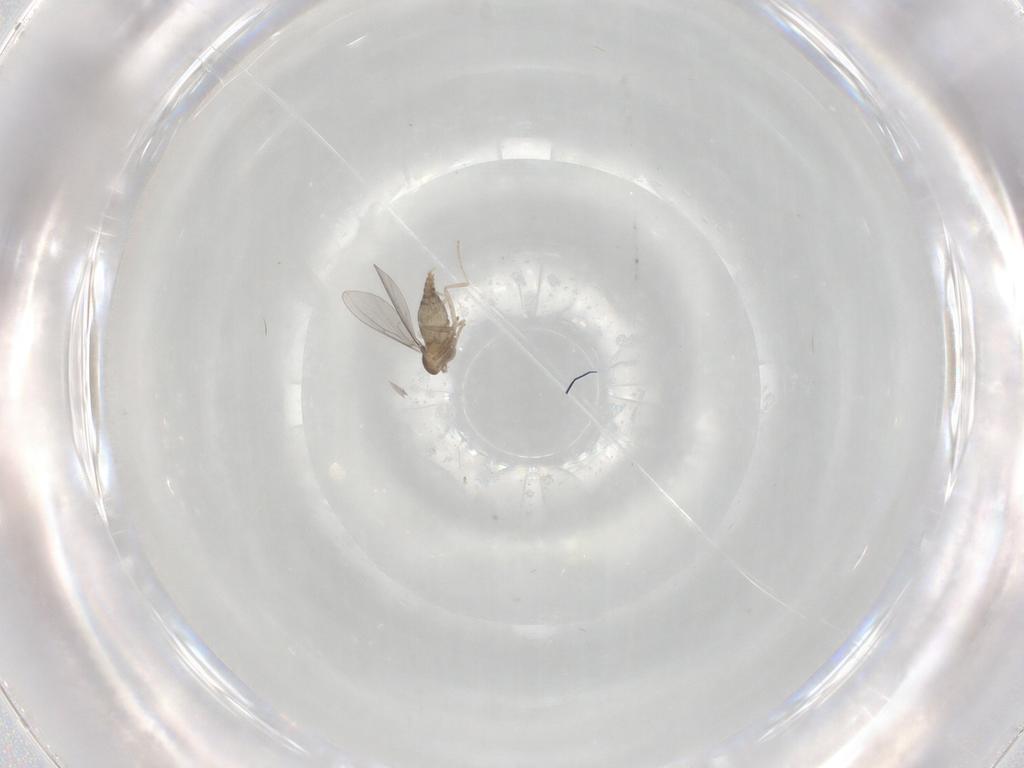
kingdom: Animalia
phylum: Arthropoda
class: Insecta
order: Diptera
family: Cecidomyiidae
